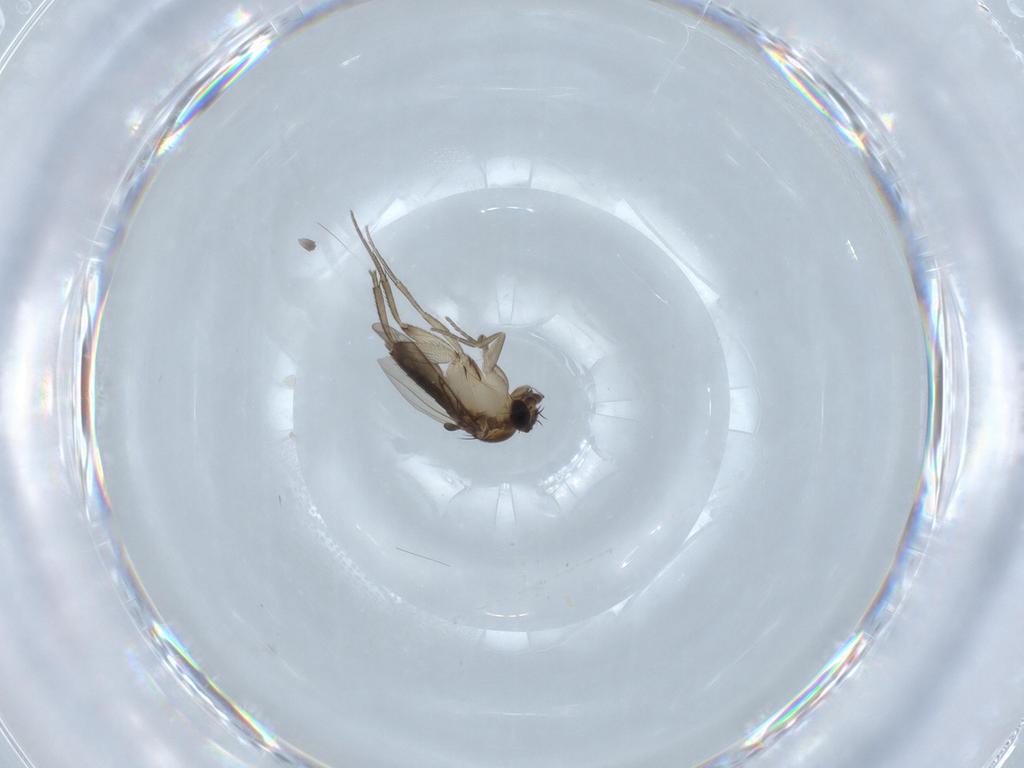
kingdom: Animalia
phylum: Arthropoda
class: Insecta
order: Diptera
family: Phoridae
